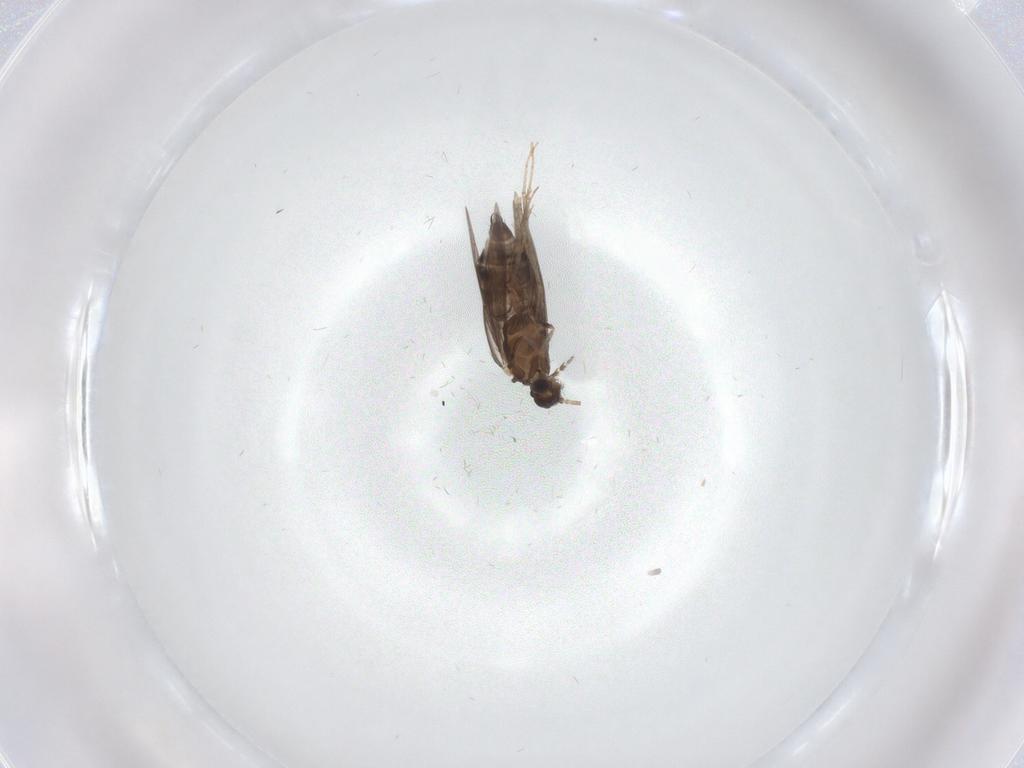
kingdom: Animalia
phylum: Arthropoda
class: Insecta
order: Trichoptera
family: Hydroptilidae
